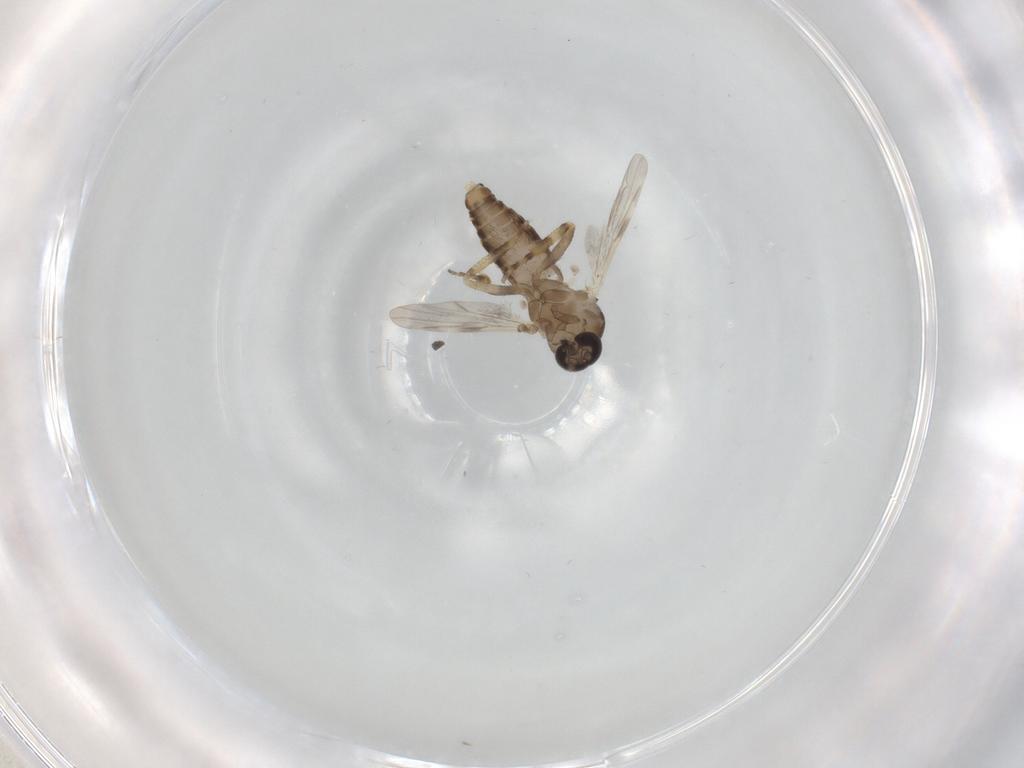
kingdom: Animalia
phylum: Arthropoda
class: Insecta
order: Diptera
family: Ceratopogonidae
